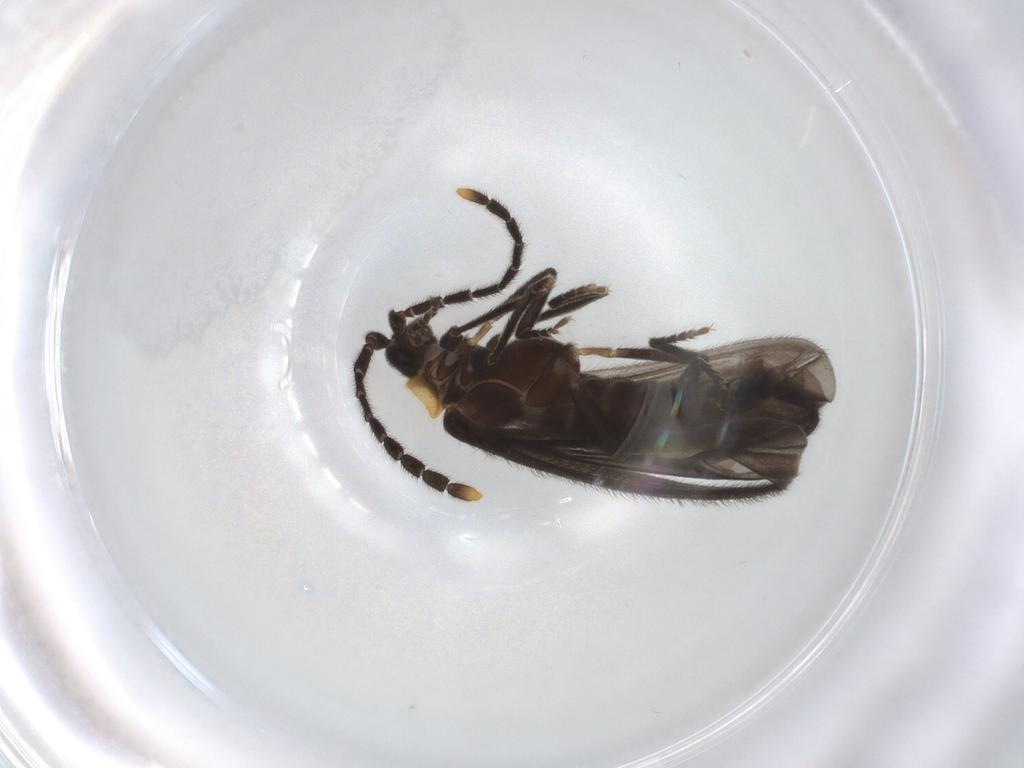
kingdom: Animalia
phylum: Arthropoda
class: Insecta
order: Coleoptera
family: Lycidae
